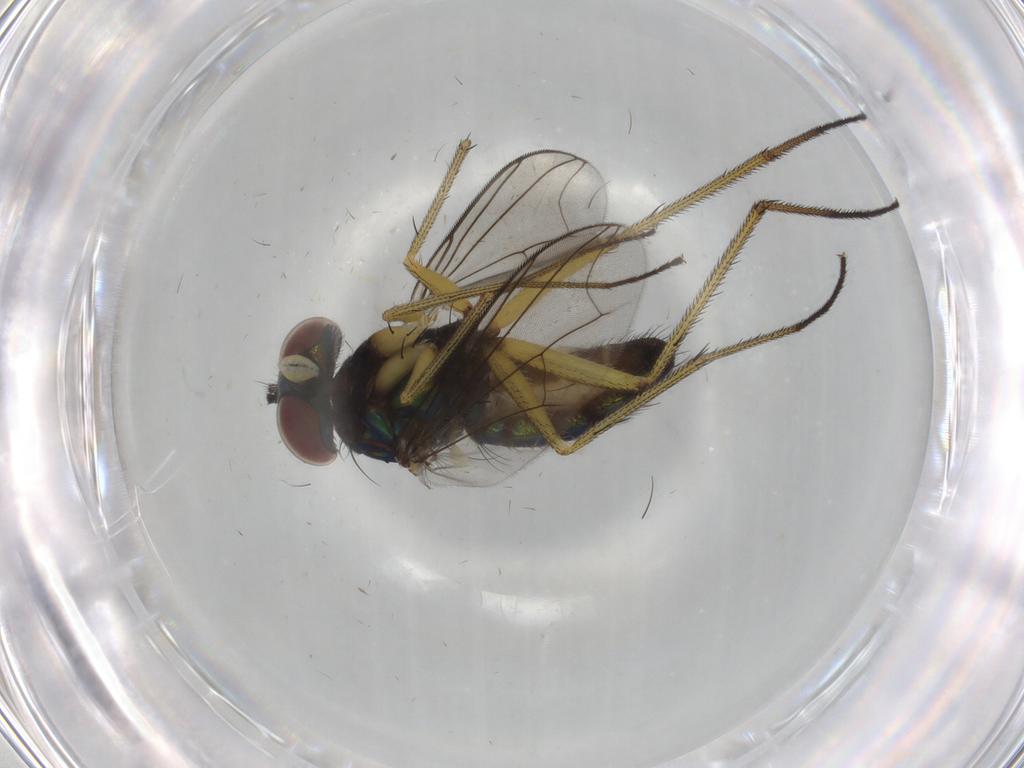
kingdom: Animalia
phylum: Arthropoda
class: Insecta
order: Diptera
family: Dolichopodidae
